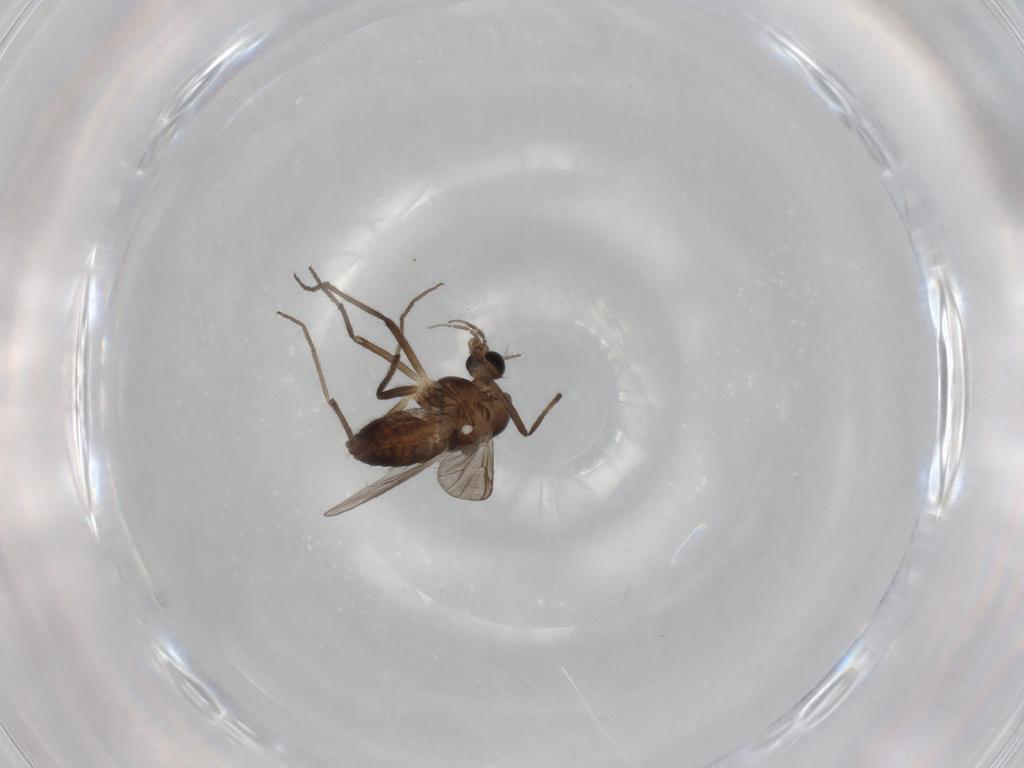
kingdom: Animalia
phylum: Arthropoda
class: Insecta
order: Diptera
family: Chironomidae
